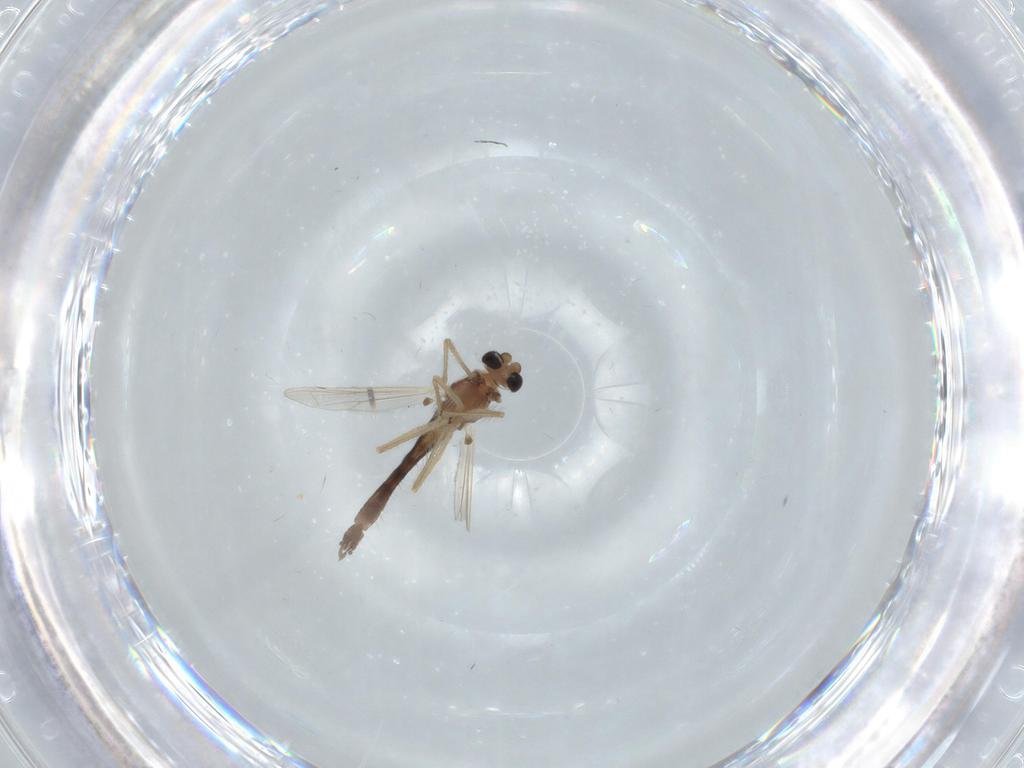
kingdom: Animalia
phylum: Arthropoda
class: Insecta
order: Diptera
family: Chironomidae
